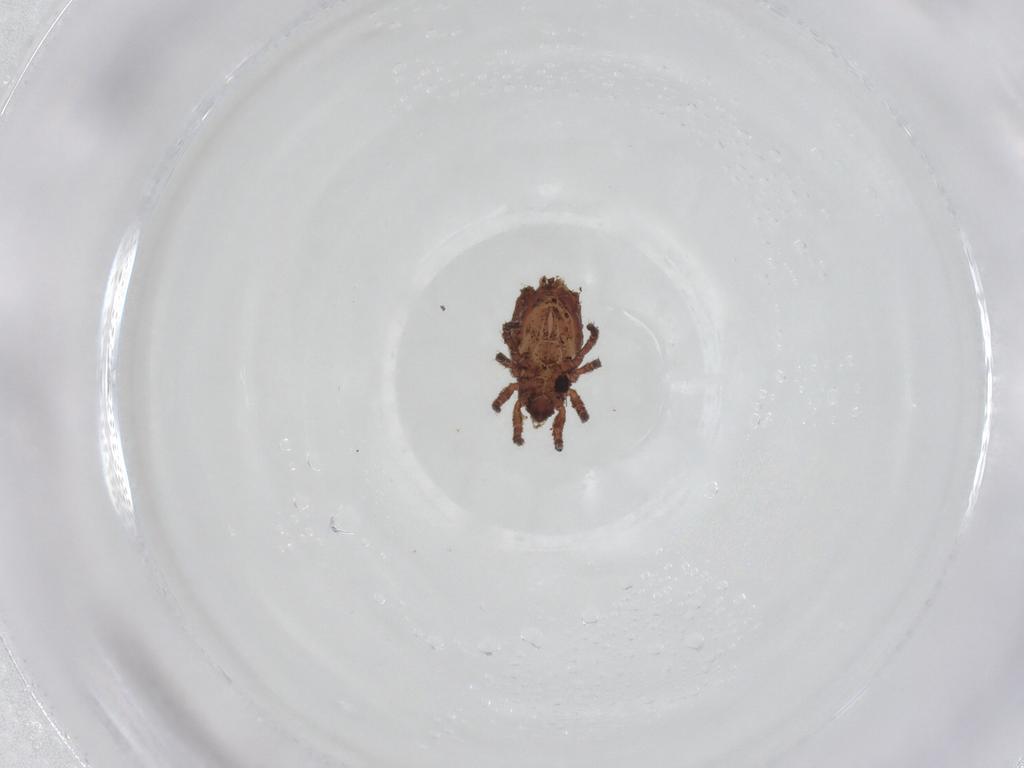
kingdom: Animalia
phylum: Arthropoda
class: Arachnida
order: Sarcoptiformes
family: Crotoniidae
